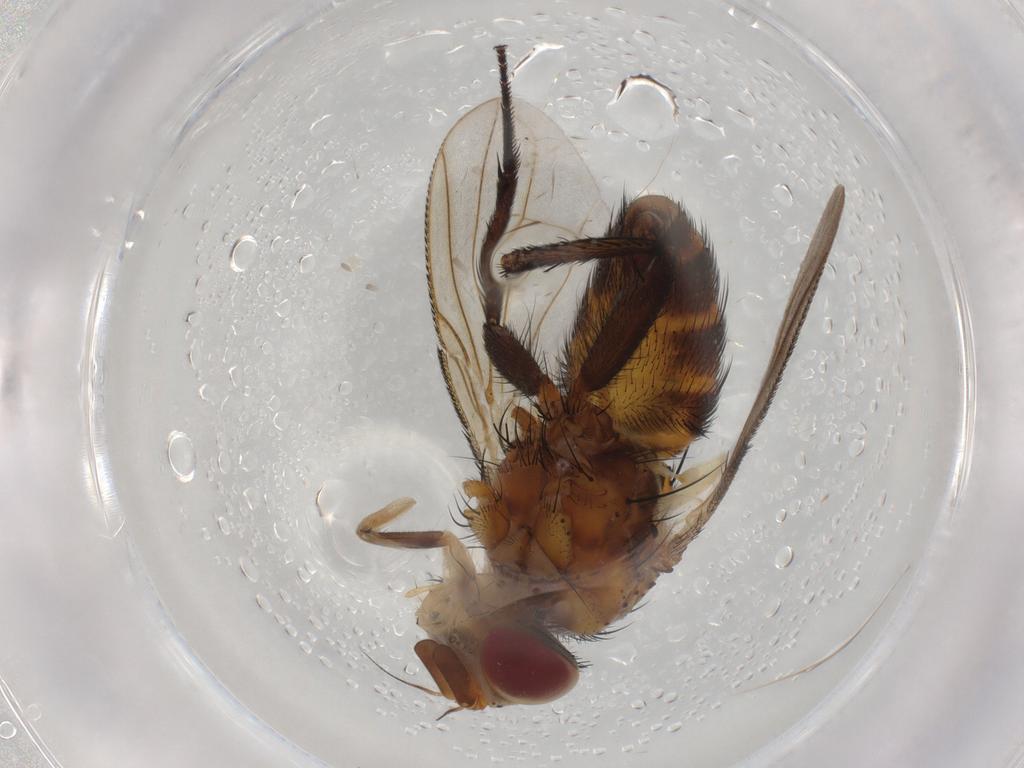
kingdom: Animalia
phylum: Arthropoda
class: Insecta
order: Diptera
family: Tachinidae
